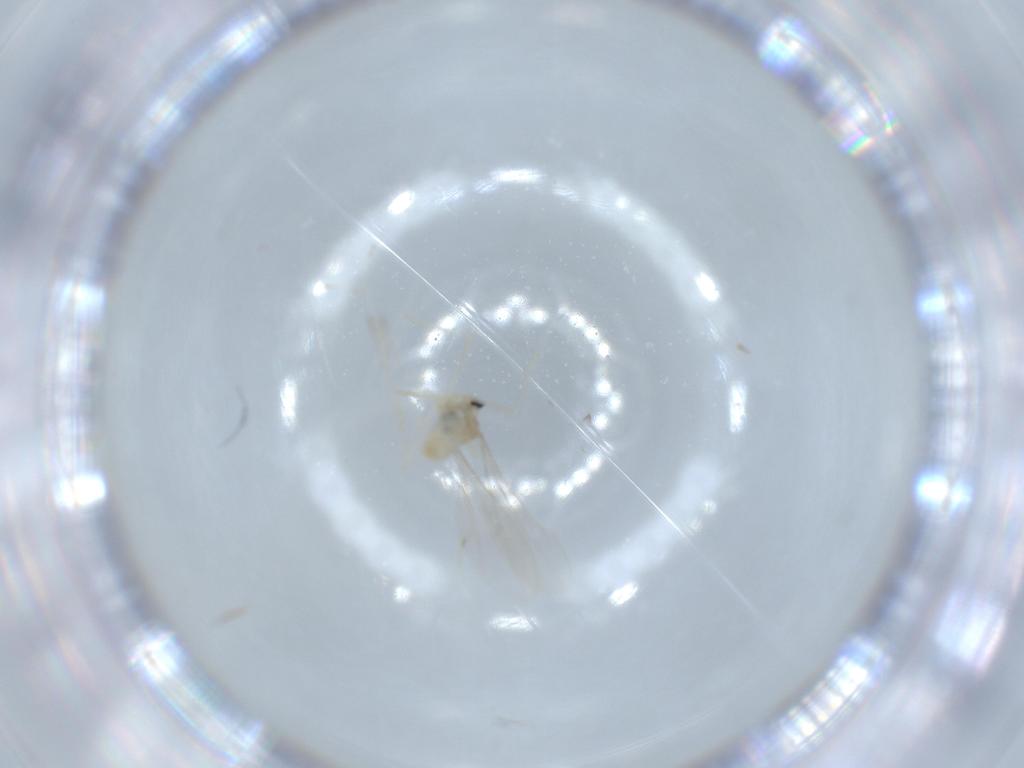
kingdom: Animalia
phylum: Arthropoda
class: Insecta
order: Diptera
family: Cecidomyiidae
